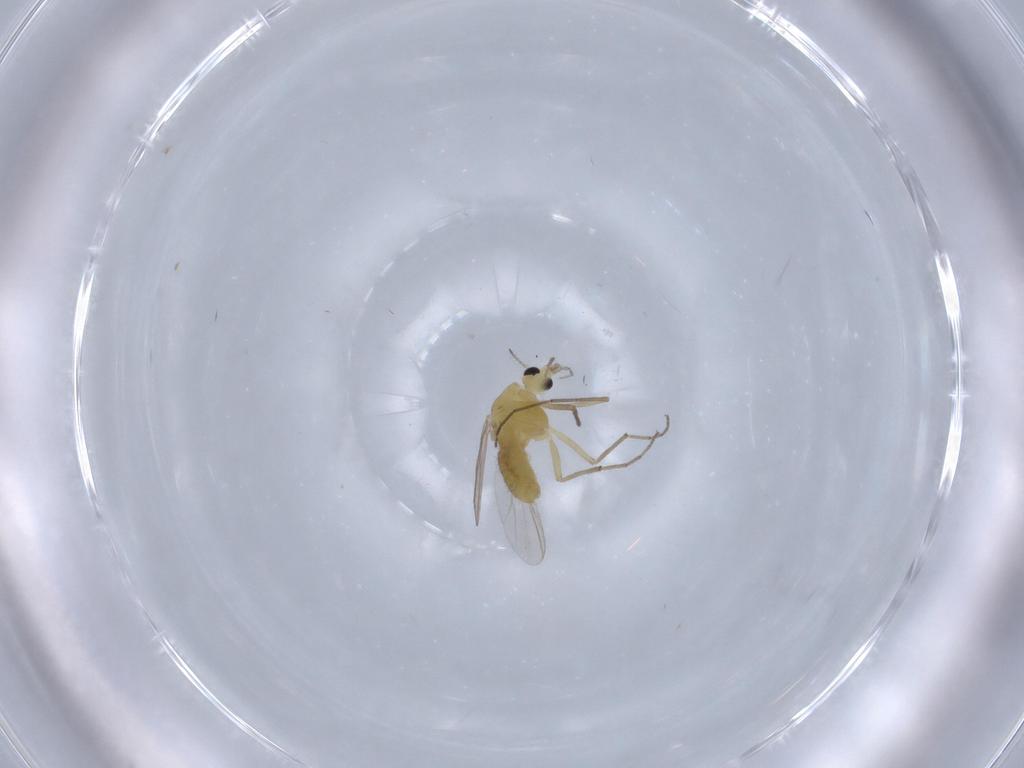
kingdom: Animalia
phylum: Arthropoda
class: Insecta
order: Diptera
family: Chironomidae
